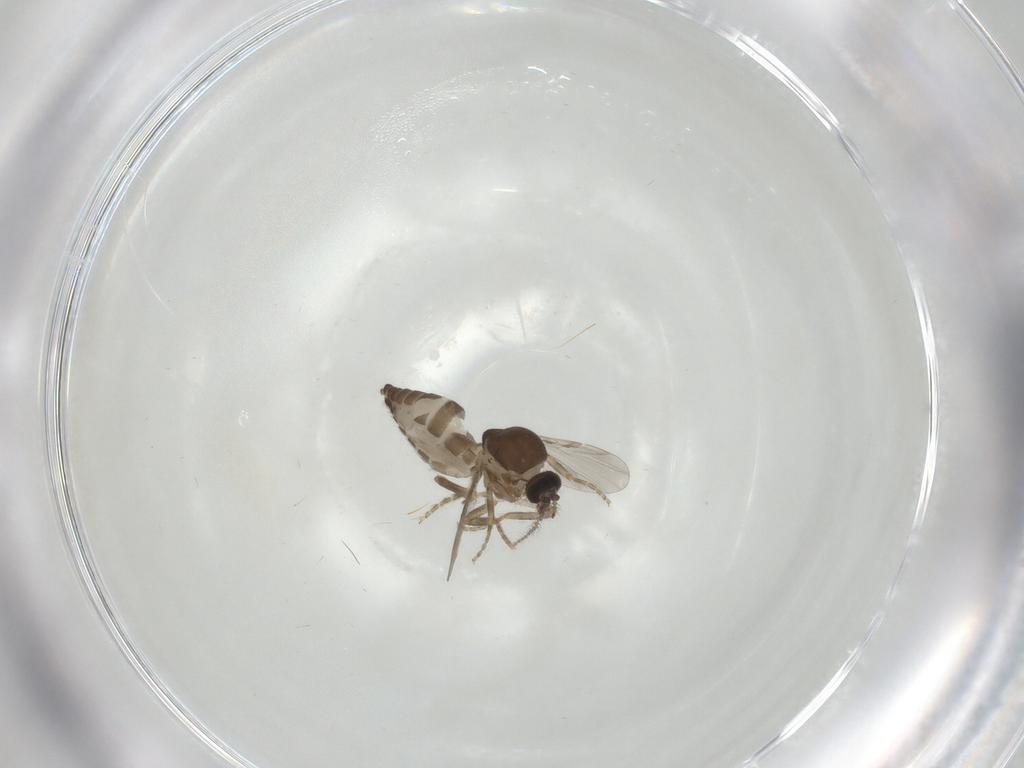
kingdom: Animalia
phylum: Arthropoda
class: Insecta
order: Diptera
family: Ceratopogonidae
